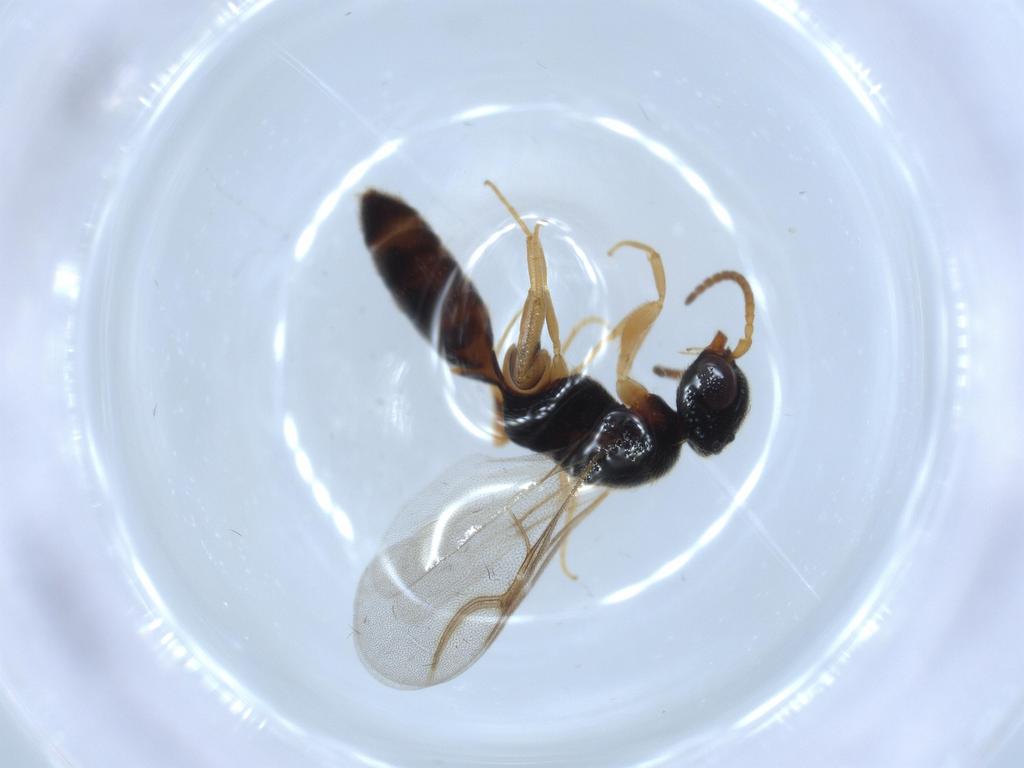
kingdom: Animalia
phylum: Arthropoda
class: Insecta
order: Hymenoptera
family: Bethylidae
